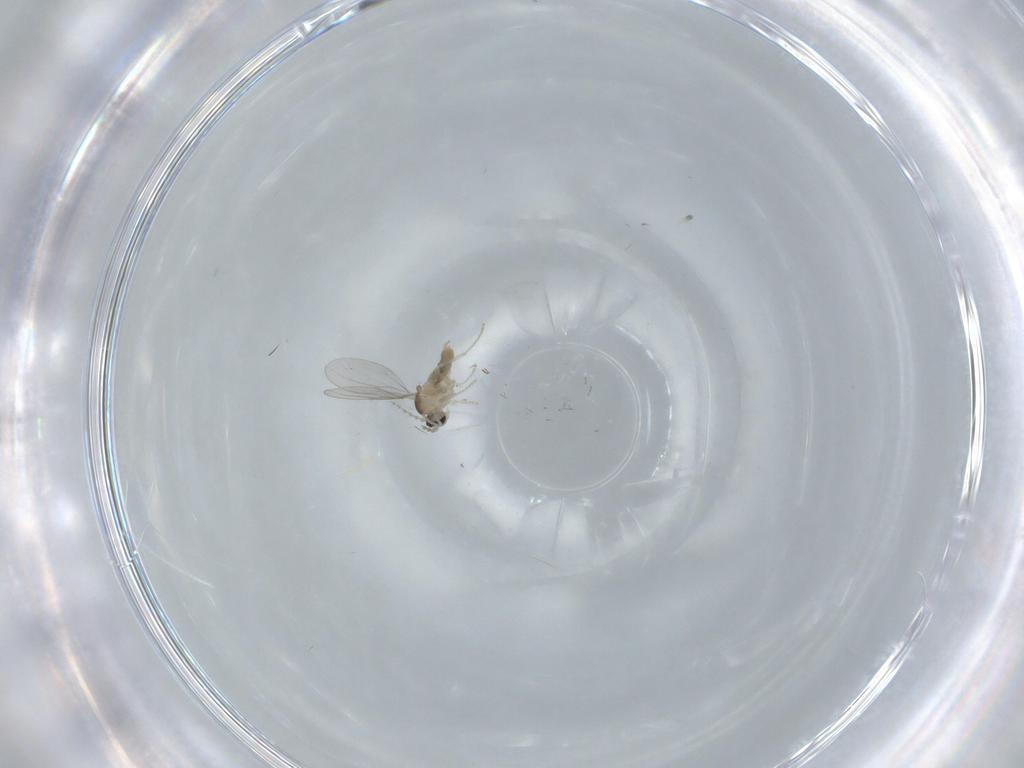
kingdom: Animalia
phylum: Arthropoda
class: Insecta
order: Diptera
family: Cecidomyiidae
